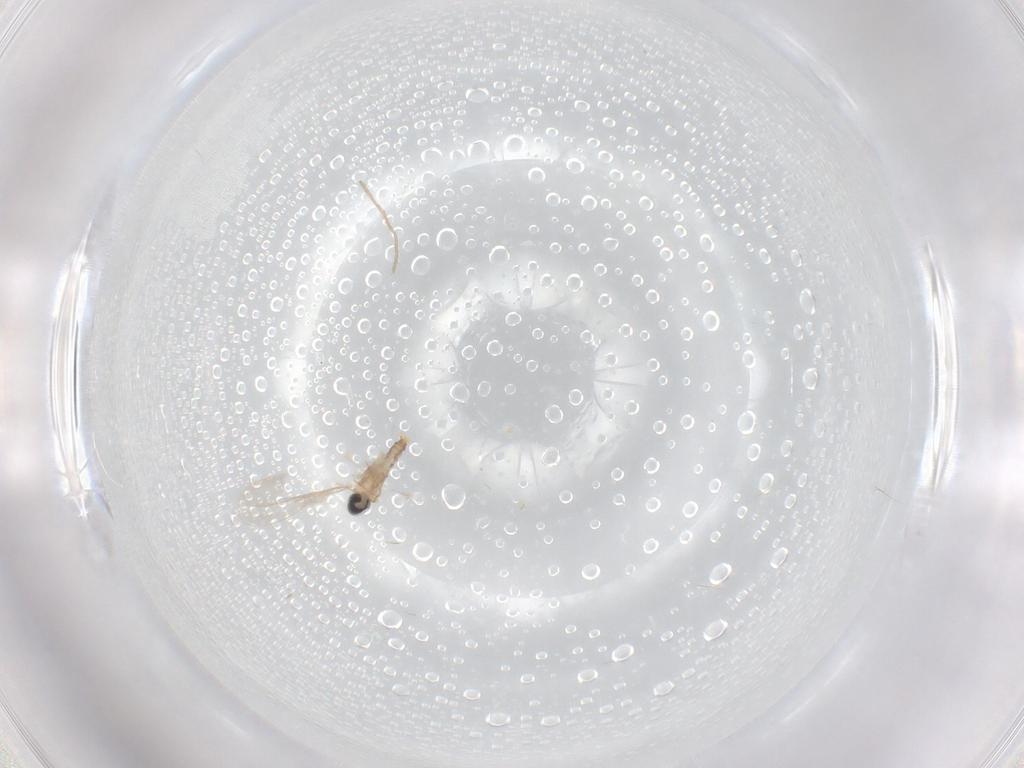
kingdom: Animalia
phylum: Arthropoda
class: Insecta
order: Diptera
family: Cecidomyiidae
